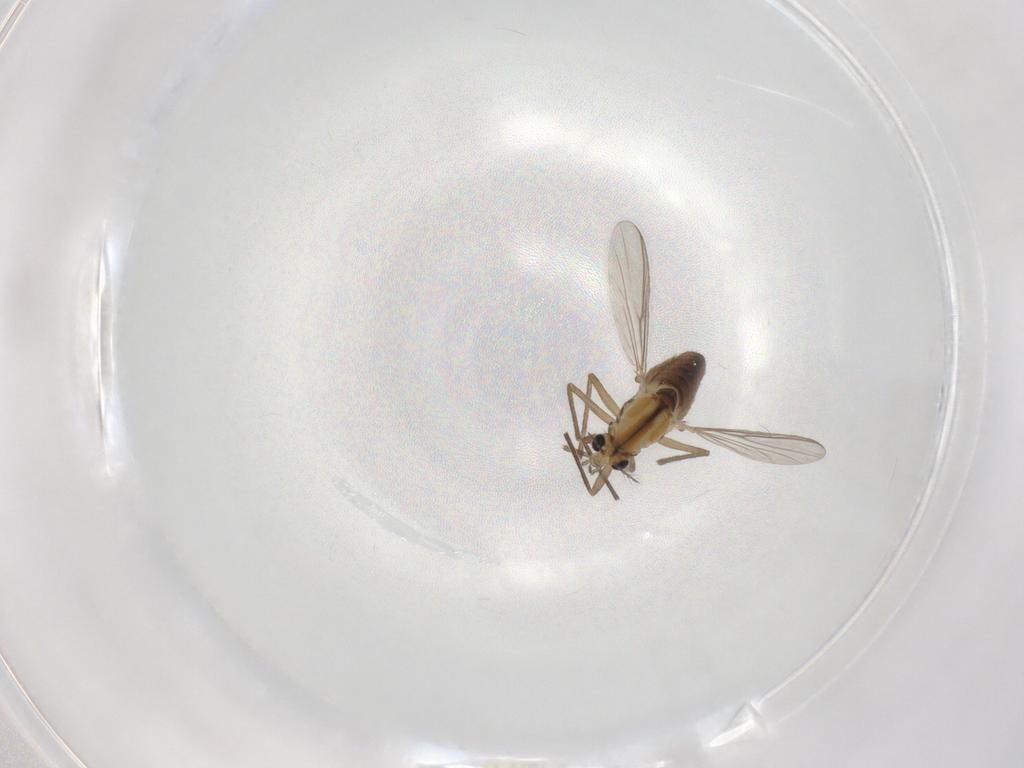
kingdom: Animalia
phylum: Arthropoda
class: Insecta
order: Diptera
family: Chironomidae
